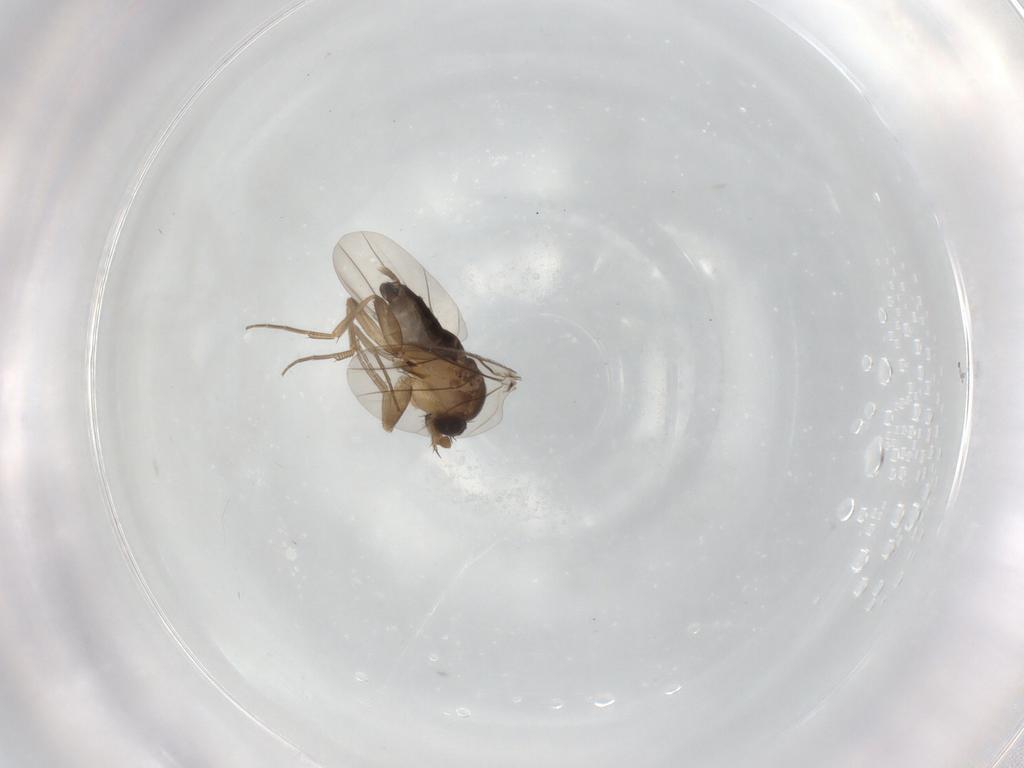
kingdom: Animalia
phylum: Arthropoda
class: Insecta
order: Diptera
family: Phoridae
